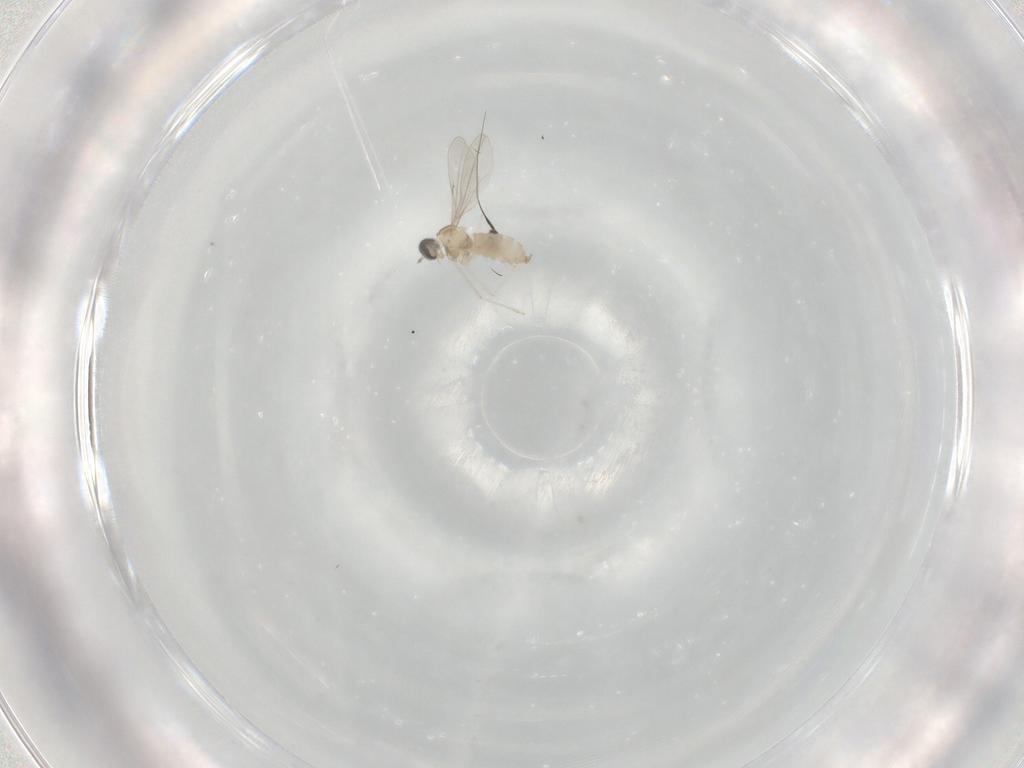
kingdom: Animalia
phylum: Arthropoda
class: Insecta
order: Diptera
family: Dolichopodidae
